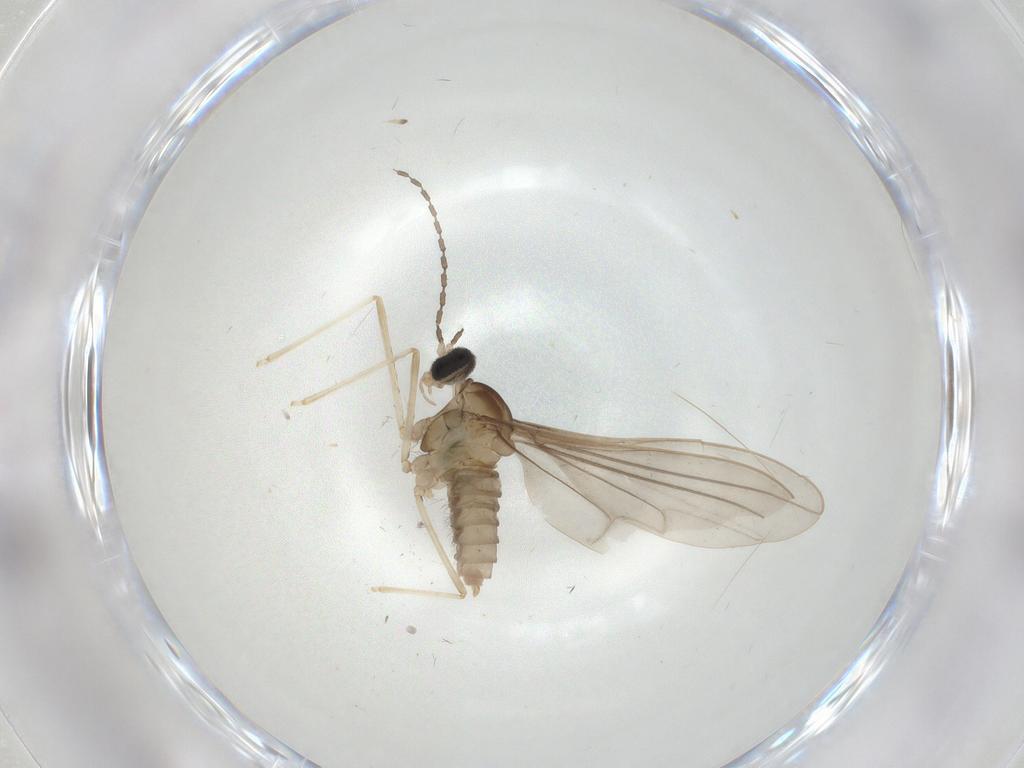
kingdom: Animalia
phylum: Arthropoda
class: Insecta
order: Diptera
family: Cecidomyiidae
